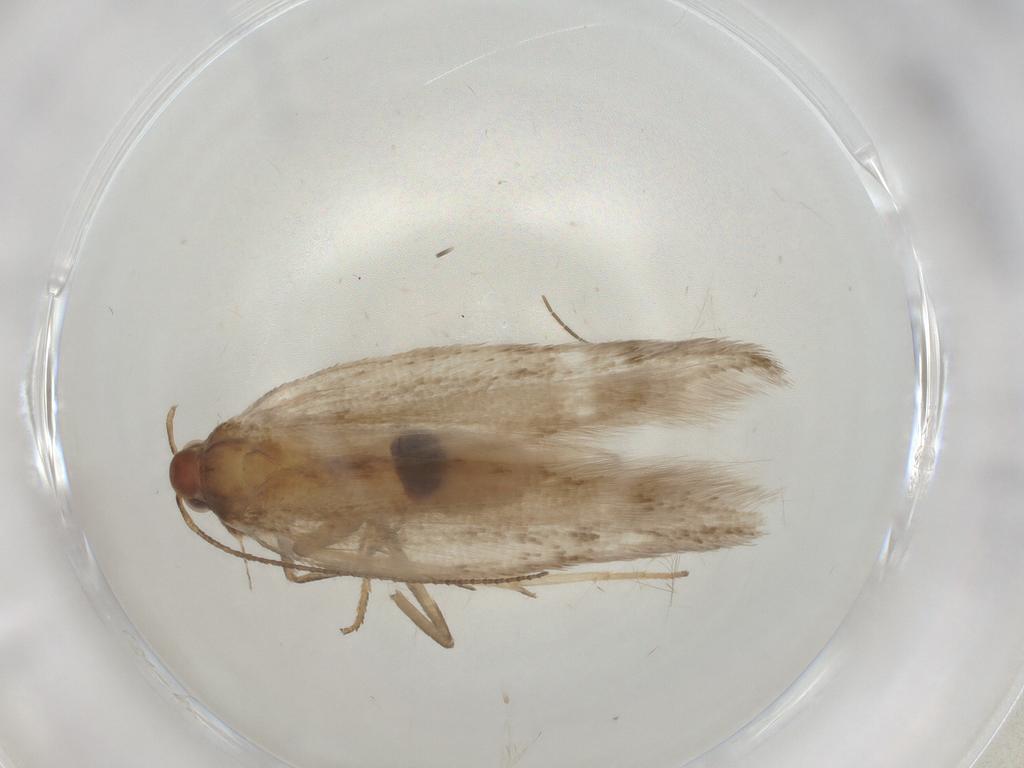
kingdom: Animalia
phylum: Arthropoda
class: Insecta
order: Lepidoptera
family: Gelechiidae
